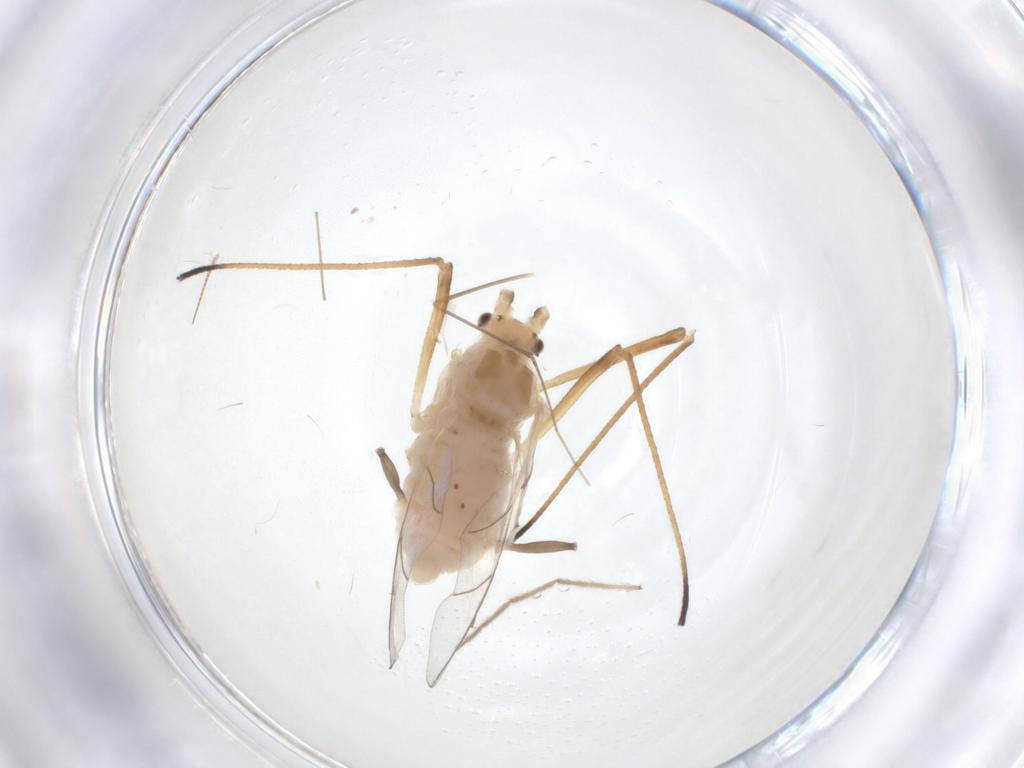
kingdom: Animalia
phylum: Arthropoda
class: Insecta
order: Hemiptera
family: Aphididae
